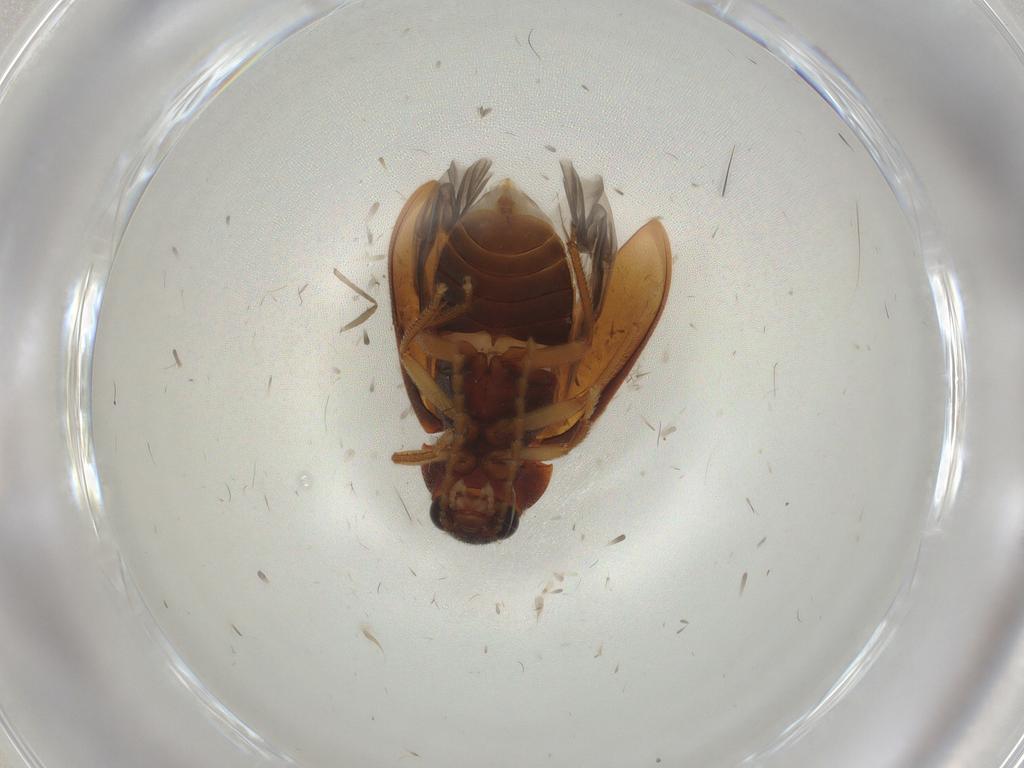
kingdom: Animalia
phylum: Arthropoda
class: Insecta
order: Coleoptera
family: Ptilodactylidae
